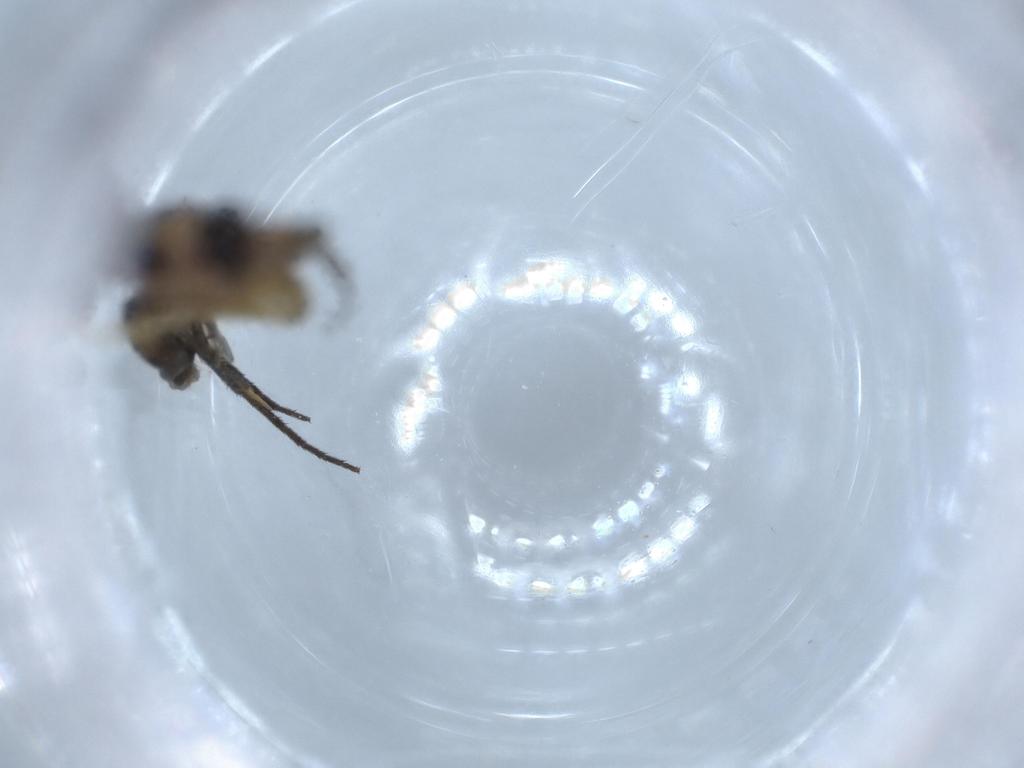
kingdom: Animalia
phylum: Arthropoda
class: Insecta
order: Diptera
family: Chironomidae
